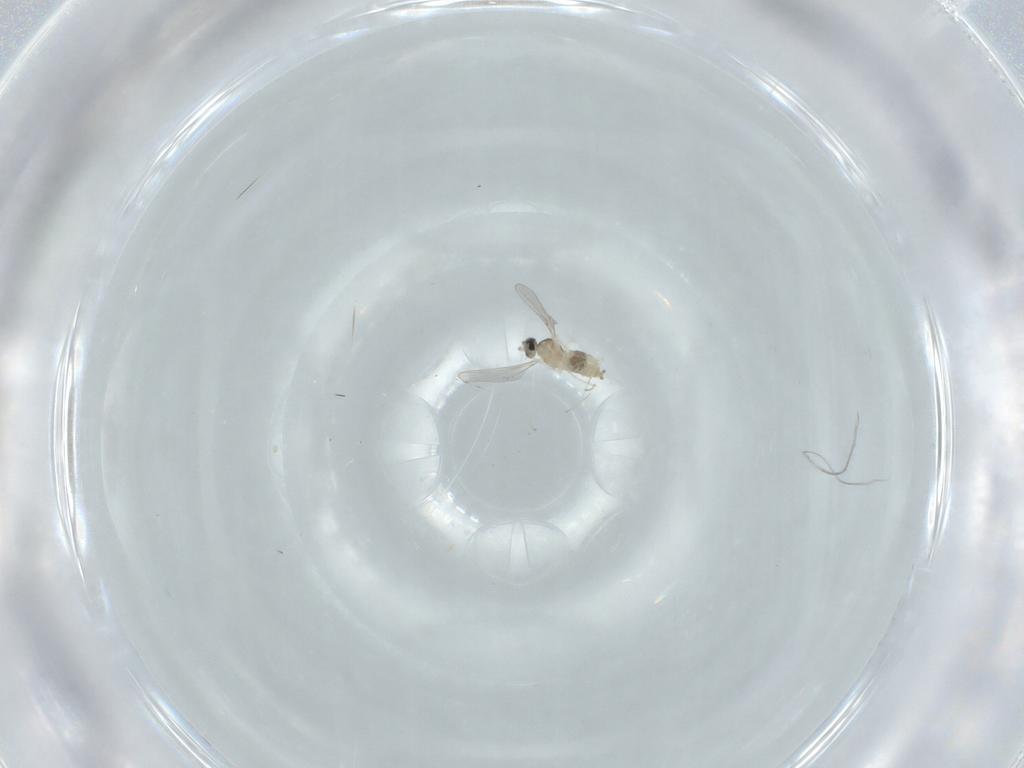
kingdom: Animalia
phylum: Arthropoda
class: Insecta
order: Diptera
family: Cecidomyiidae
